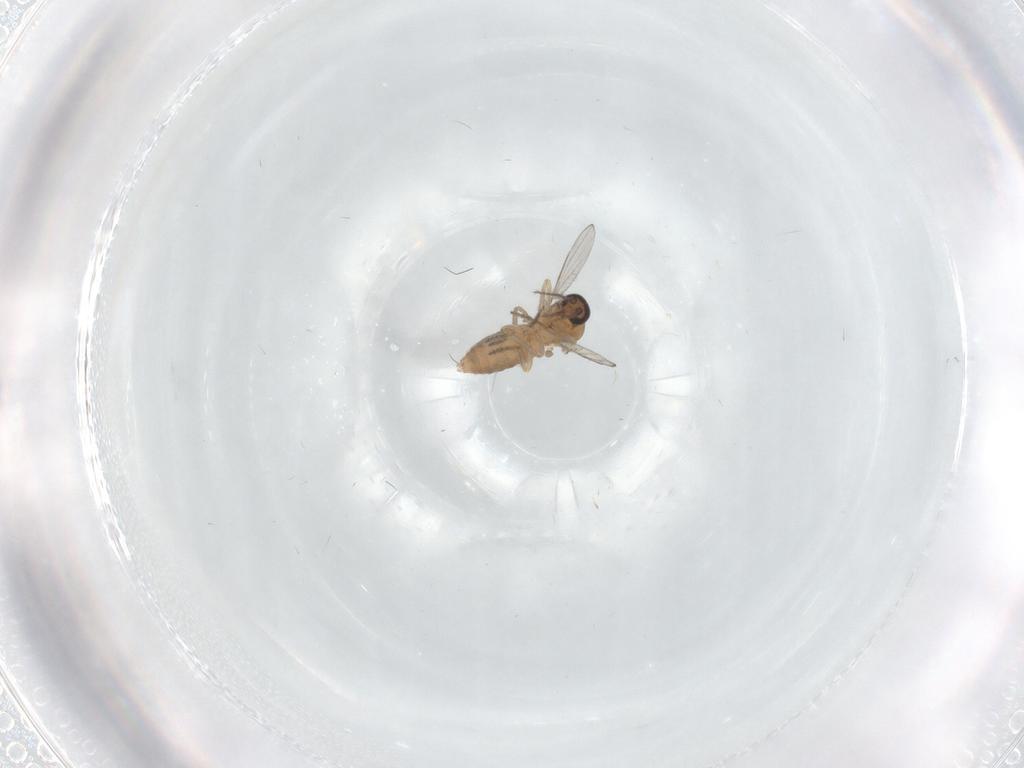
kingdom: Animalia
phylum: Arthropoda
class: Insecta
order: Diptera
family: Ceratopogonidae
